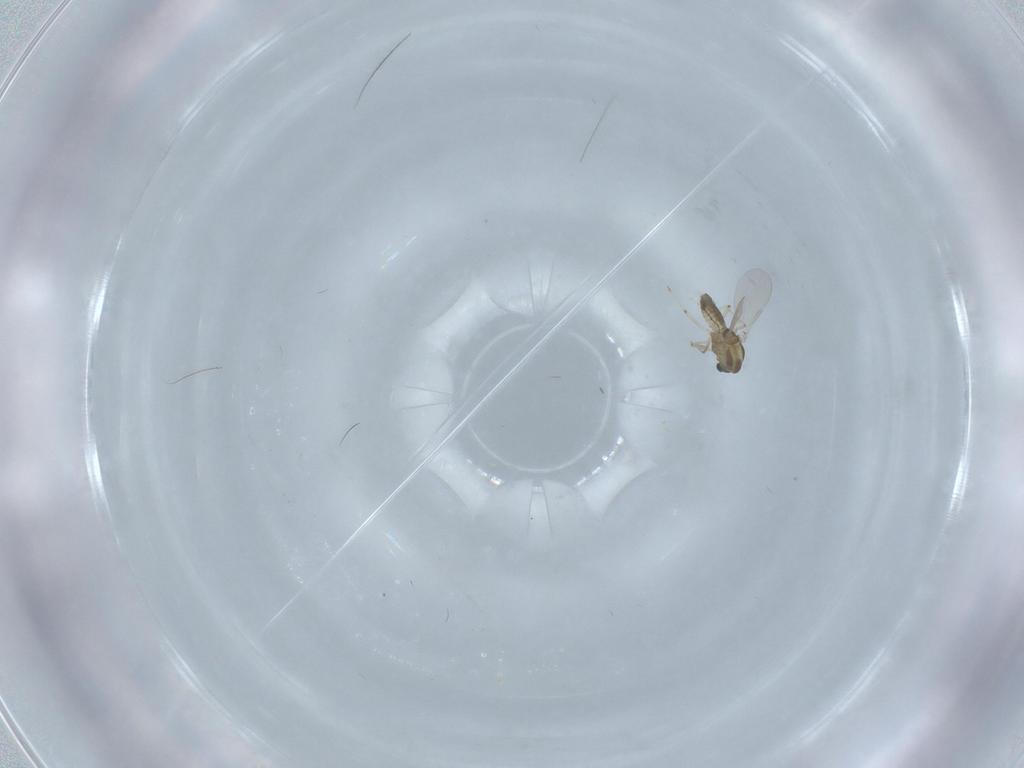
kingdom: Animalia
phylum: Arthropoda
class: Insecta
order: Diptera
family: Chironomidae
